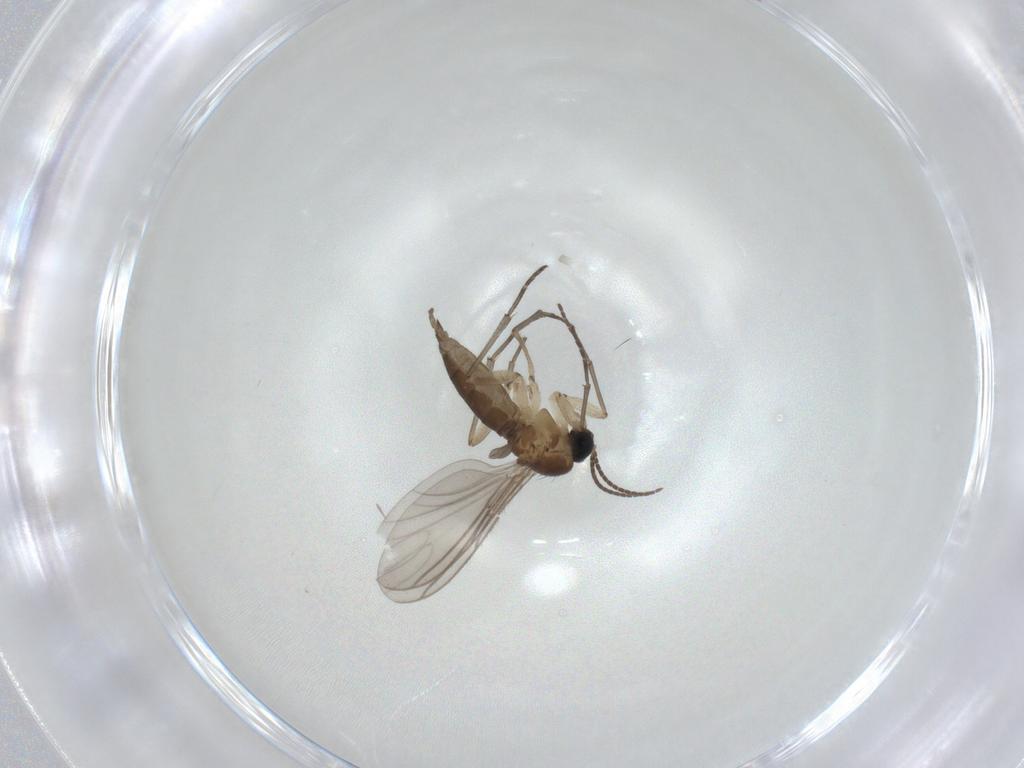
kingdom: Animalia
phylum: Arthropoda
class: Insecta
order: Diptera
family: Sciaridae
